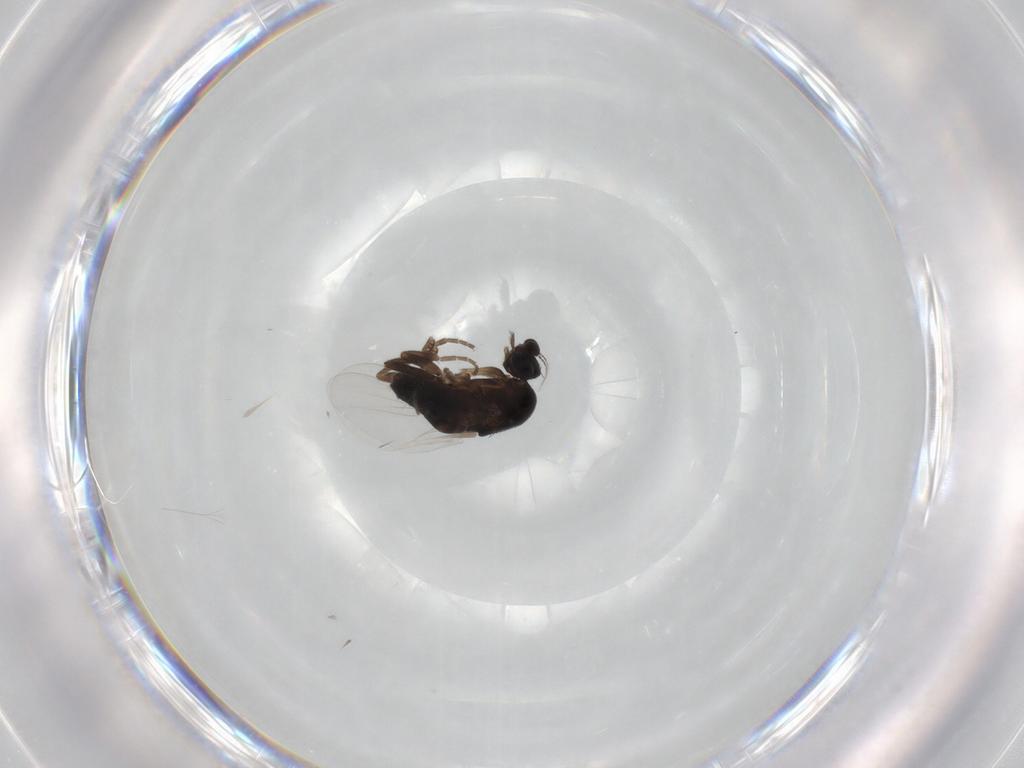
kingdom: Animalia
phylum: Arthropoda
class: Insecta
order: Diptera
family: Phoridae
